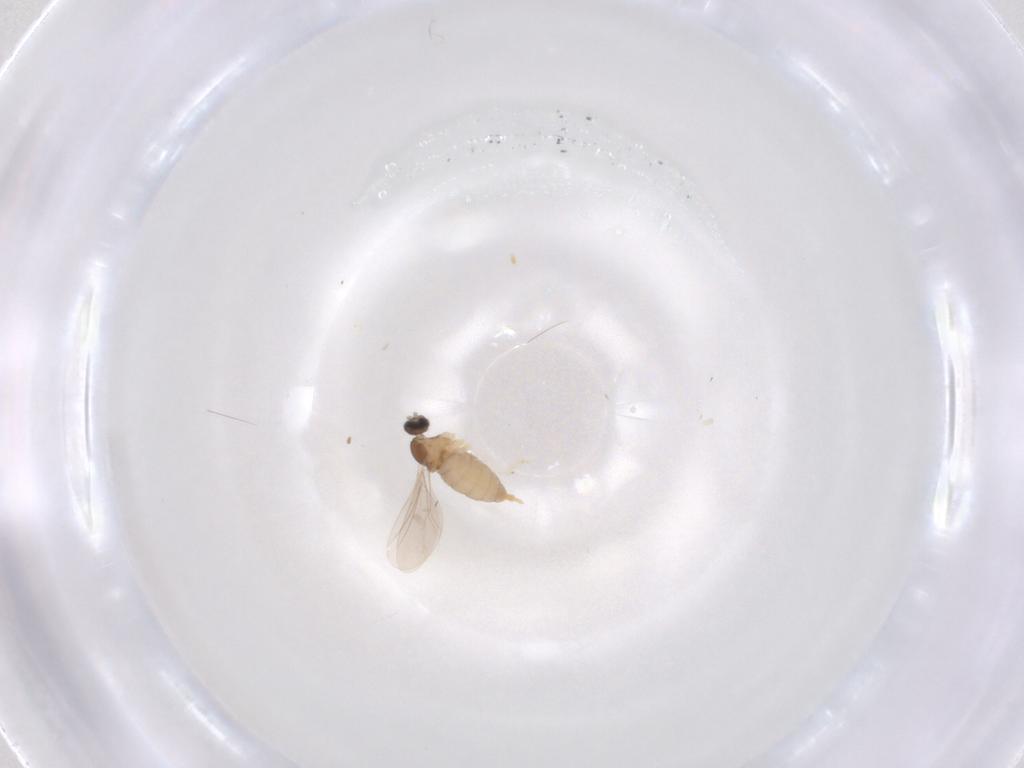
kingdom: Animalia
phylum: Arthropoda
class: Insecta
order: Diptera
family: Cecidomyiidae
